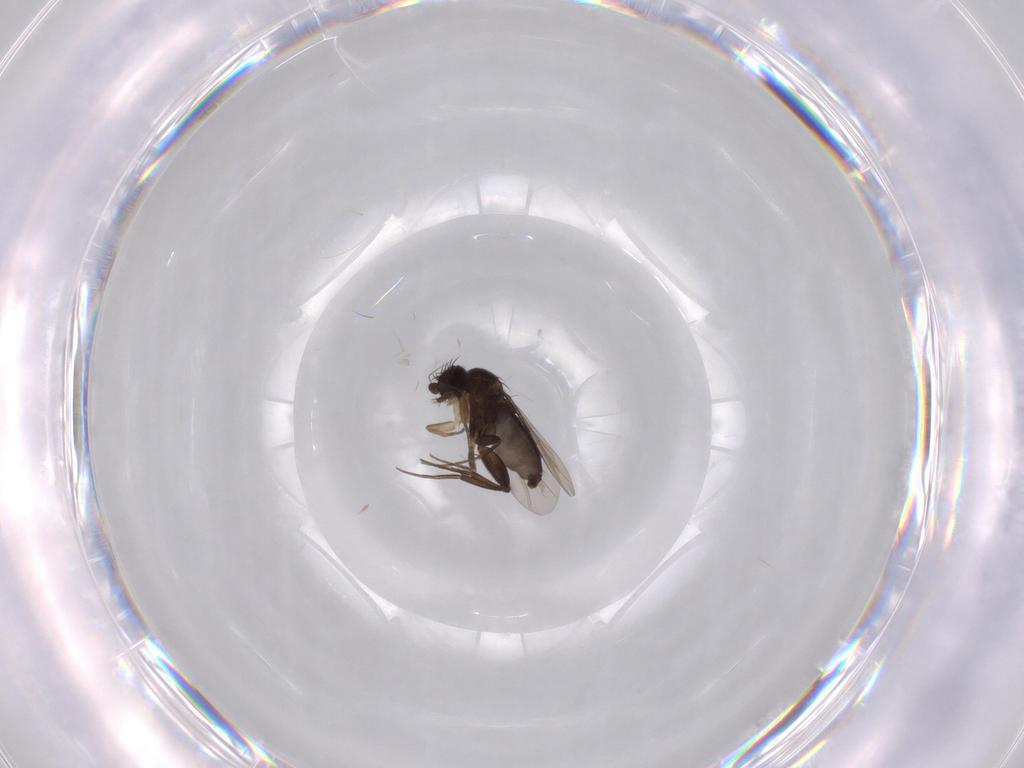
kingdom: Animalia
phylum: Arthropoda
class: Insecta
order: Diptera
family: Phoridae
